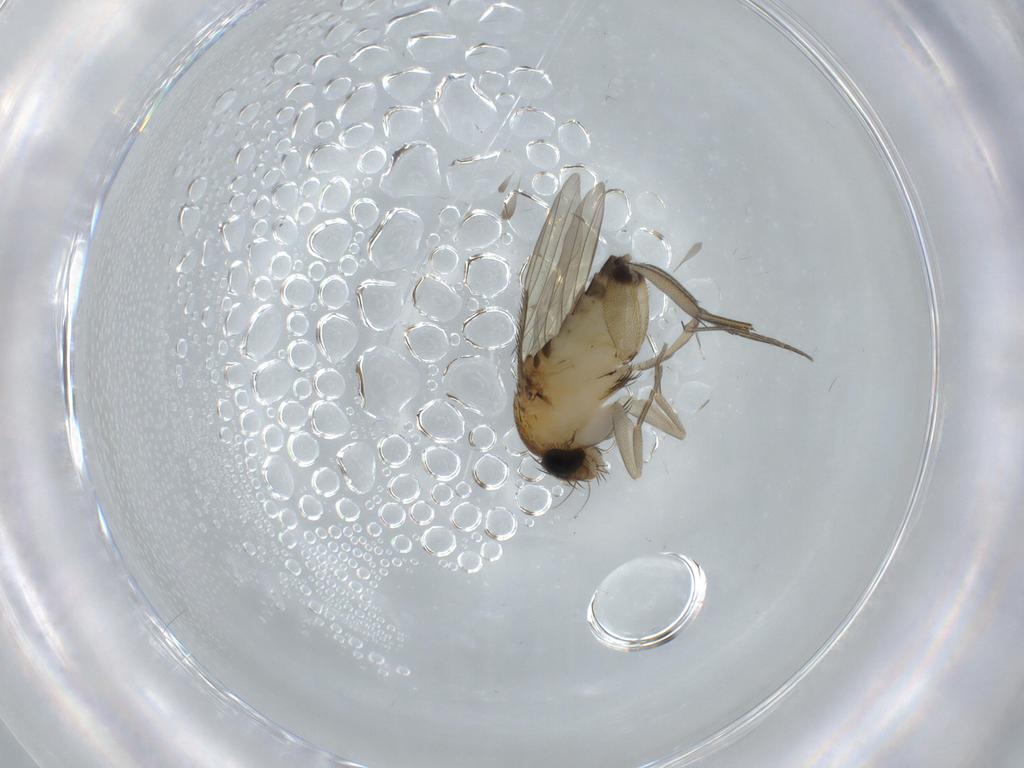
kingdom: Animalia
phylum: Arthropoda
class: Insecta
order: Diptera
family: Phoridae
